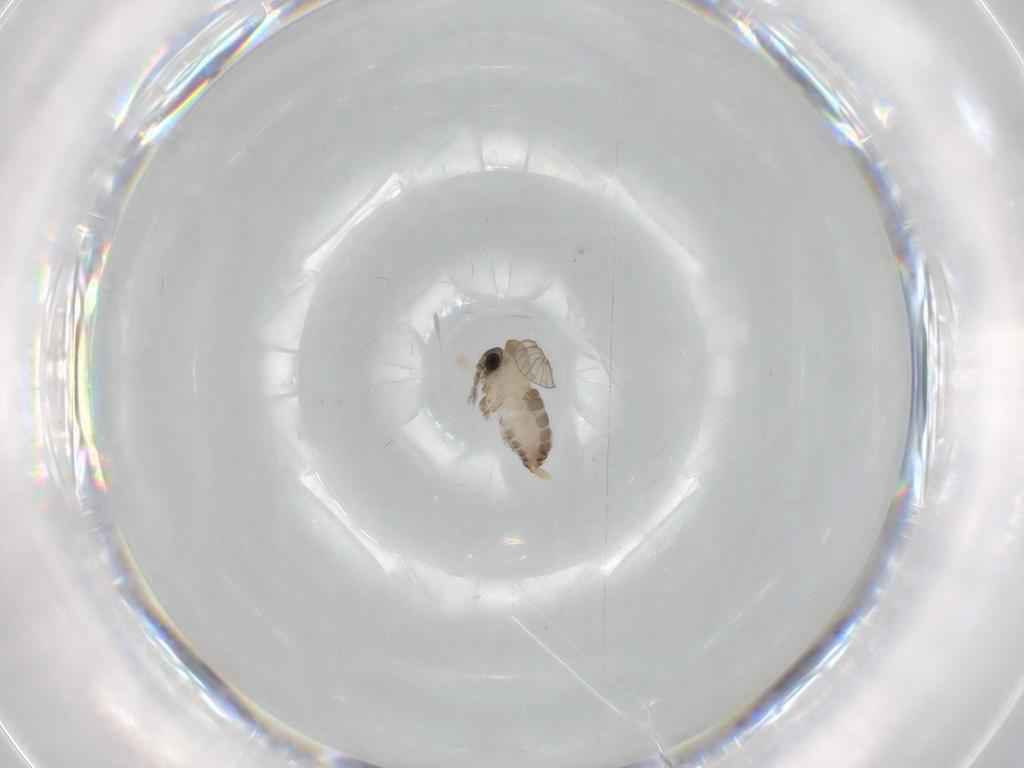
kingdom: Animalia
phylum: Arthropoda
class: Insecta
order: Diptera
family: Psychodidae
